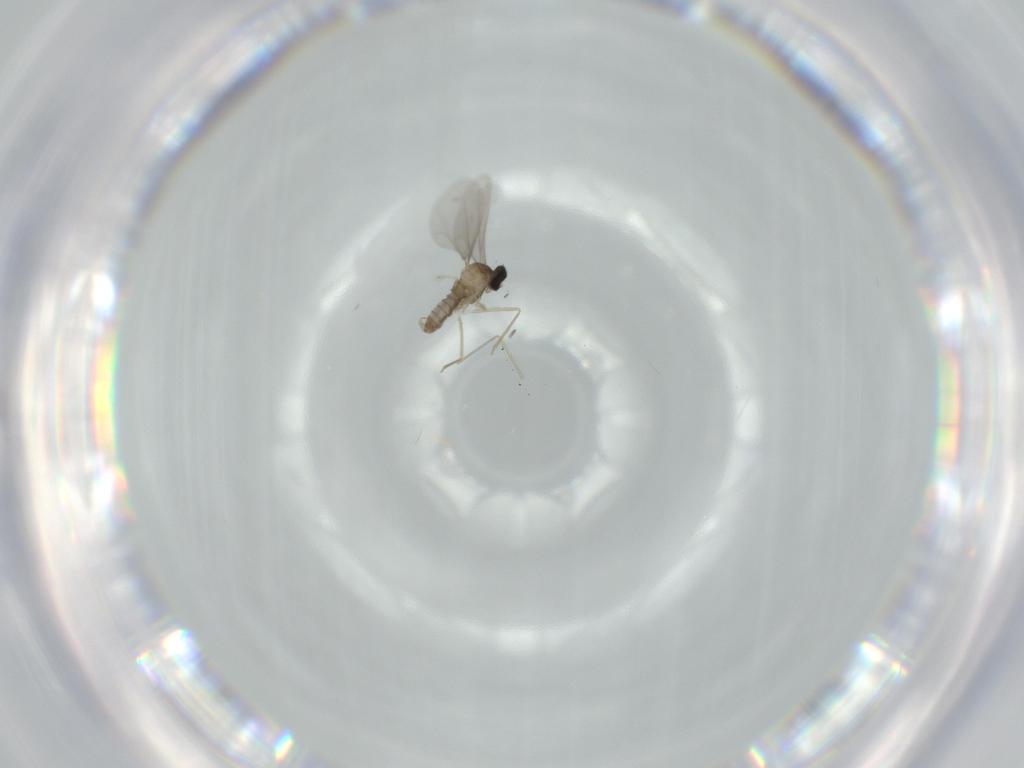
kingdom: Animalia
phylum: Arthropoda
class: Insecta
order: Diptera
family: Cecidomyiidae
